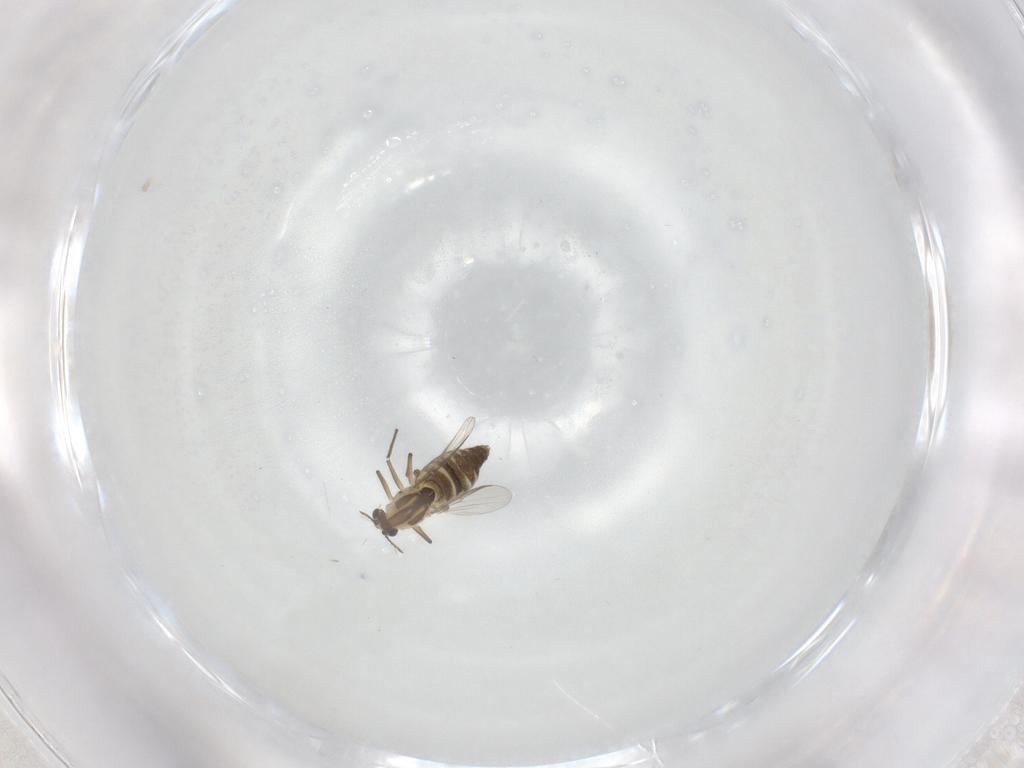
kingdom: Animalia
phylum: Arthropoda
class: Insecta
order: Diptera
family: Chironomidae
